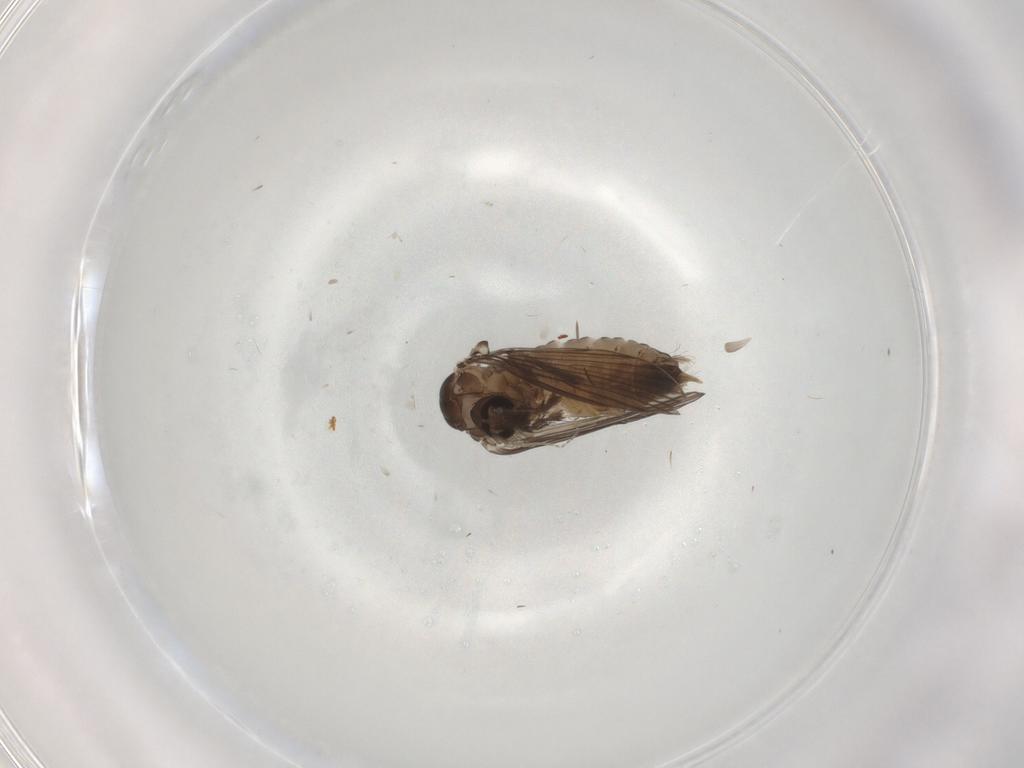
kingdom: Animalia
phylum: Arthropoda
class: Insecta
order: Diptera
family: Psychodidae
